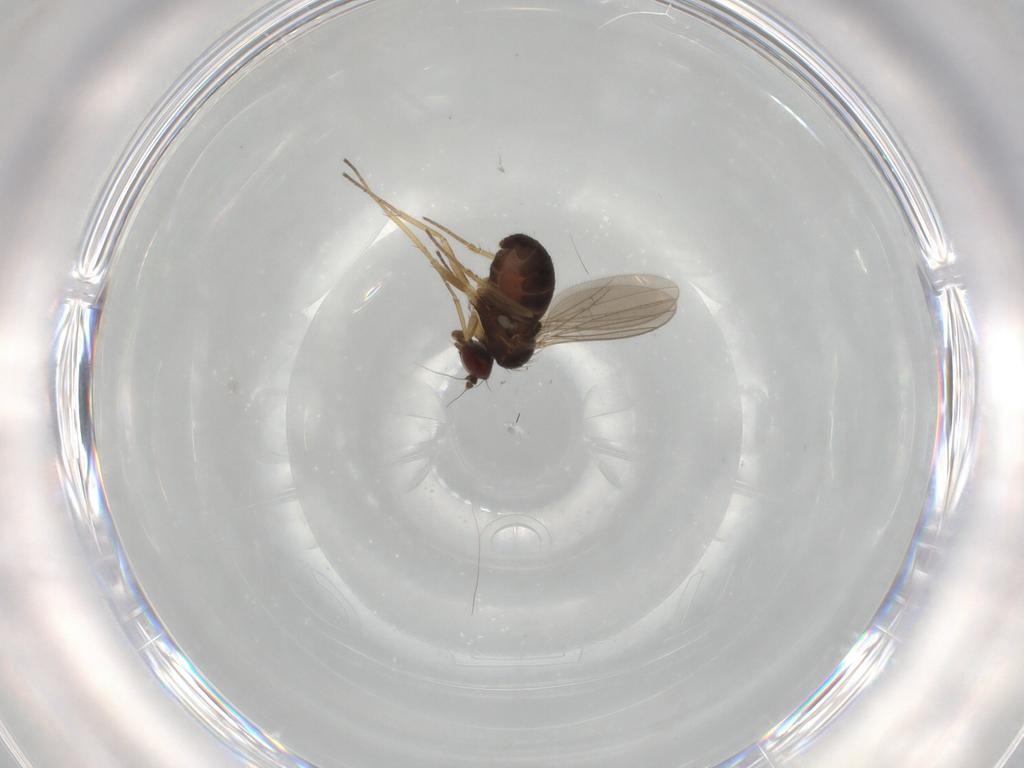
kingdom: Animalia
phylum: Arthropoda
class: Insecta
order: Diptera
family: Dolichopodidae
